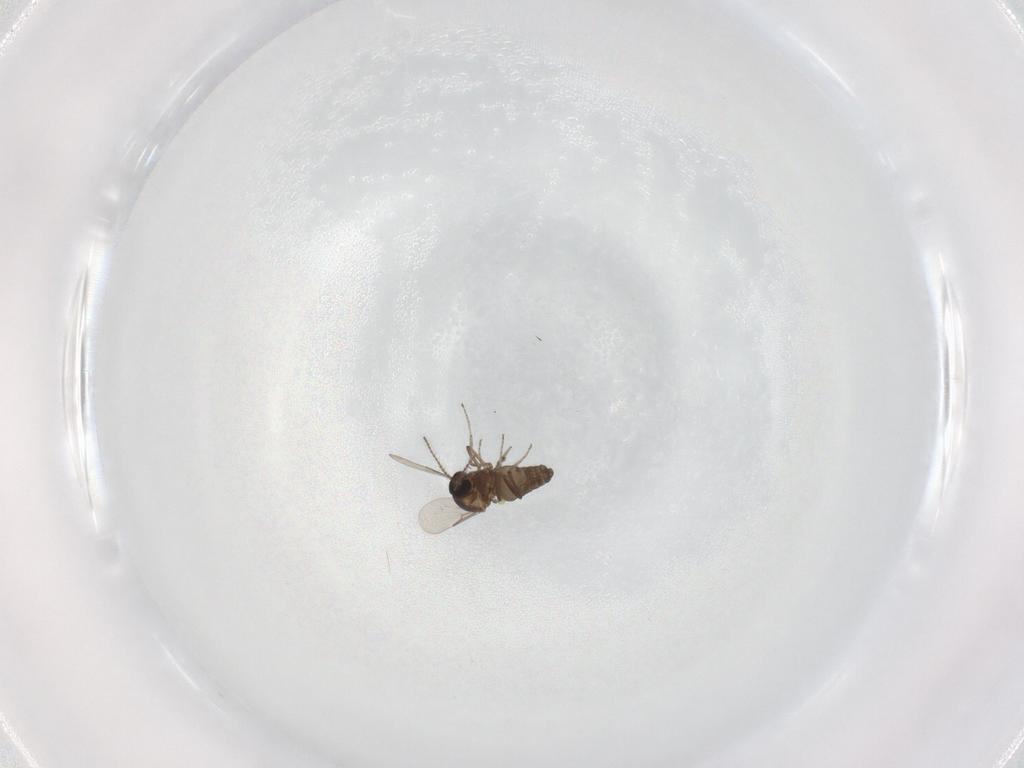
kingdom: Animalia
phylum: Arthropoda
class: Insecta
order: Diptera
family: Ceratopogonidae
